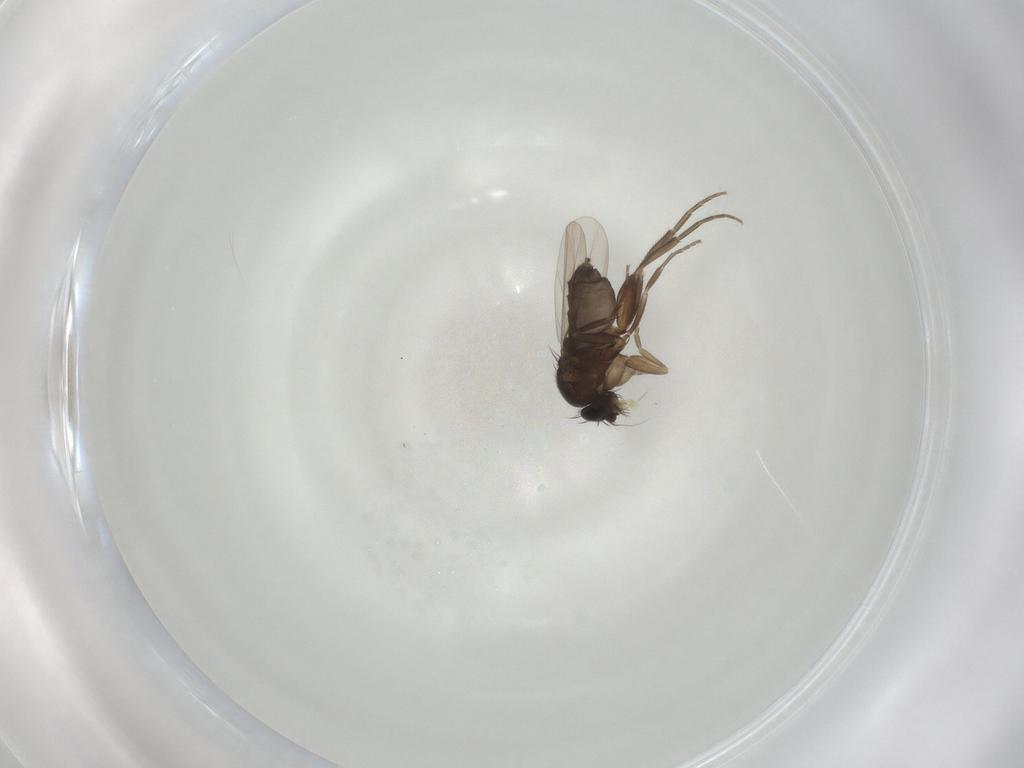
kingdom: Animalia
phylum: Arthropoda
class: Insecta
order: Diptera
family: Phoridae
